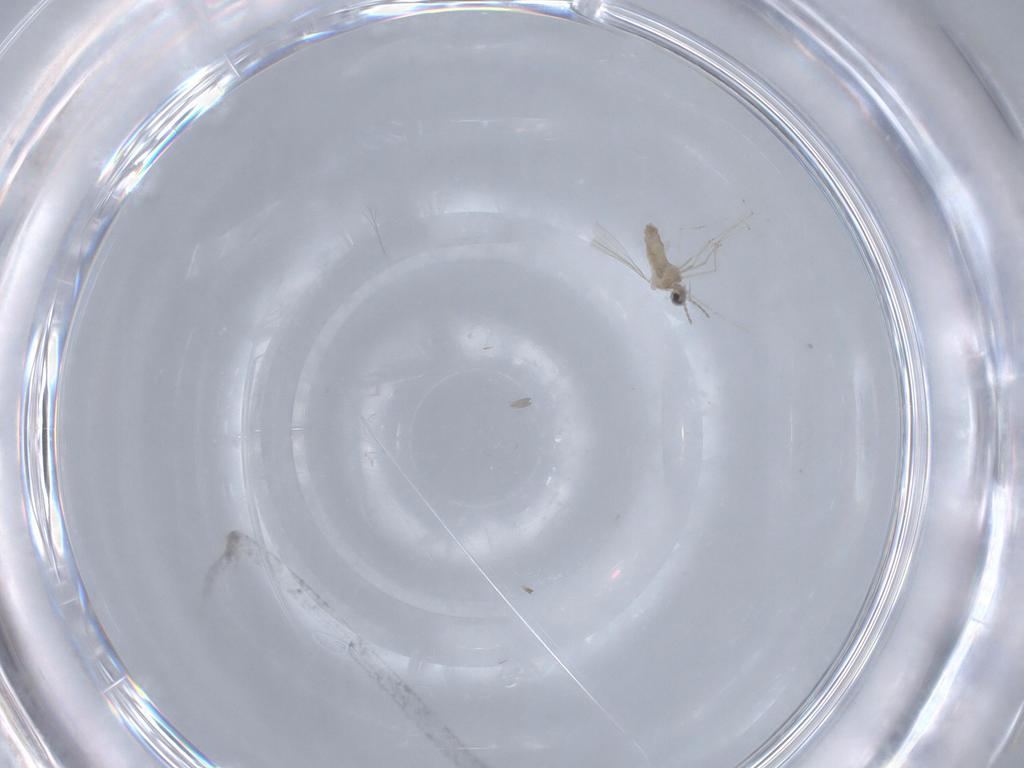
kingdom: Animalia
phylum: Arthropoda
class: Insecta
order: Diptera
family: Cecidomyiidae
